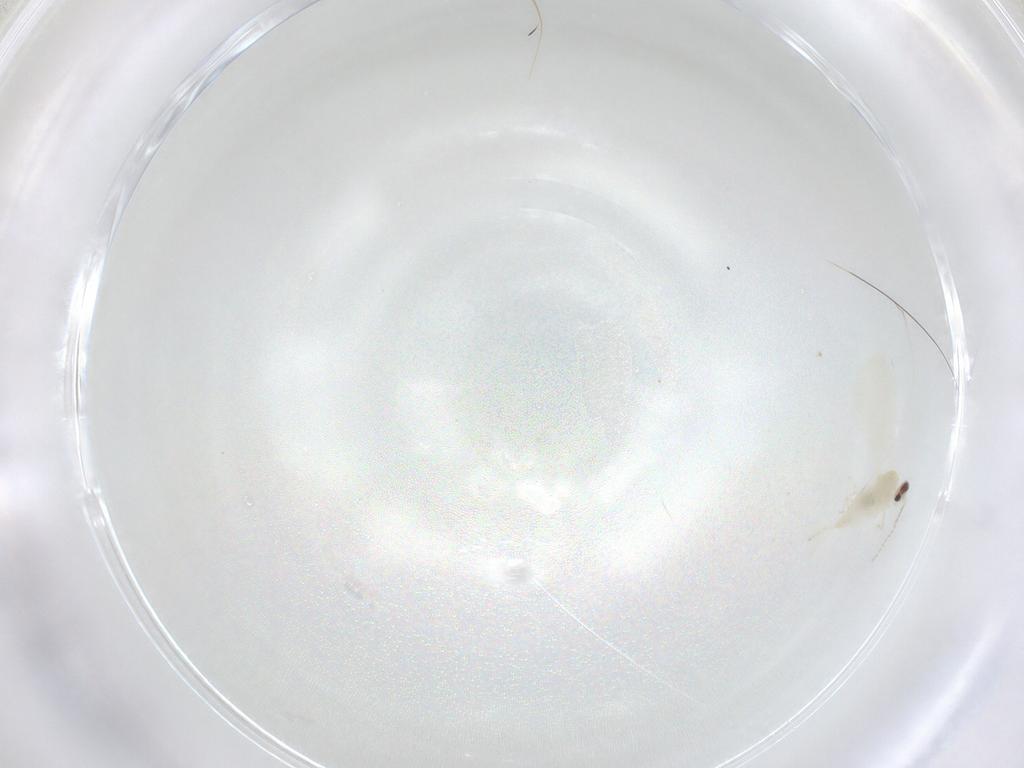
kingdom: Animalia
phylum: Arthropoda
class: Insecta
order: Diptera
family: Cecidomyiidae
